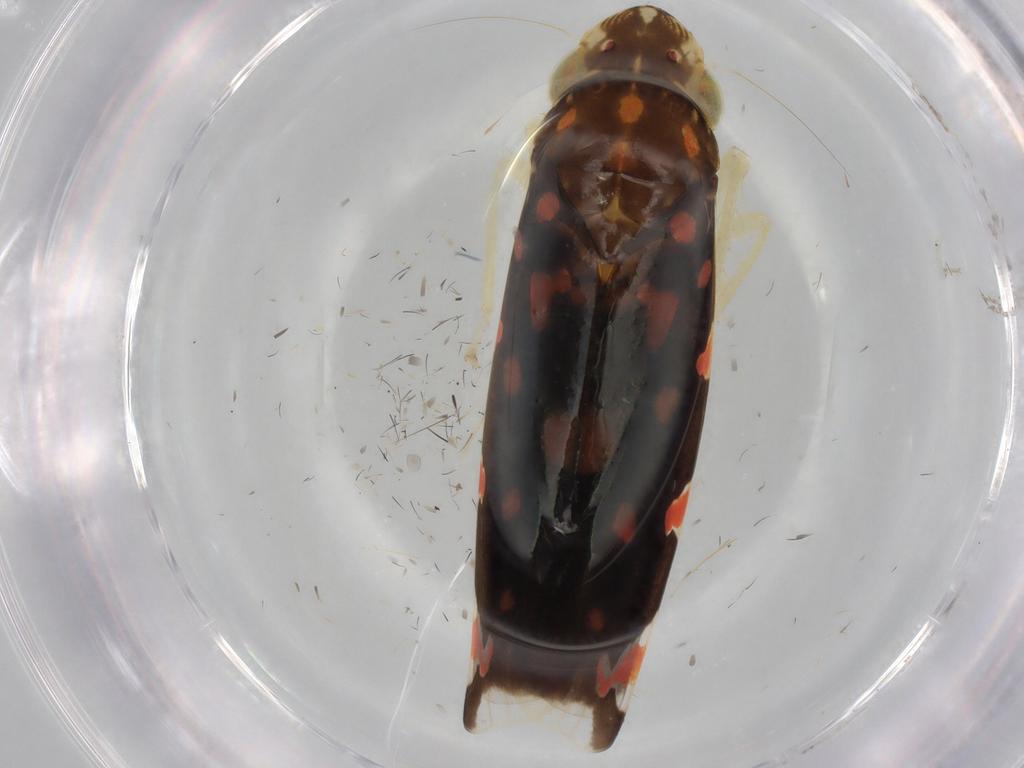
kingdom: Animalia
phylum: Arthropoda
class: Insecta
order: Hemiptera
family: Cicadellidae
